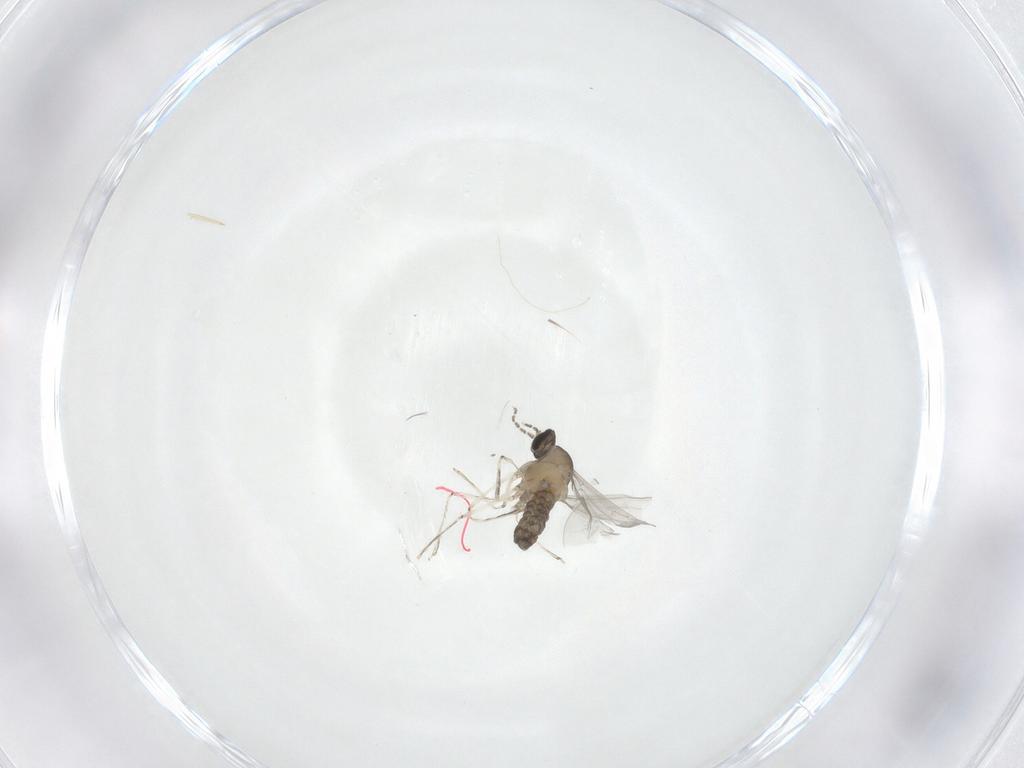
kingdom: Animalia
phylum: Arthropoda
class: Insecta
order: Diptera
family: Cecidomyiidae
